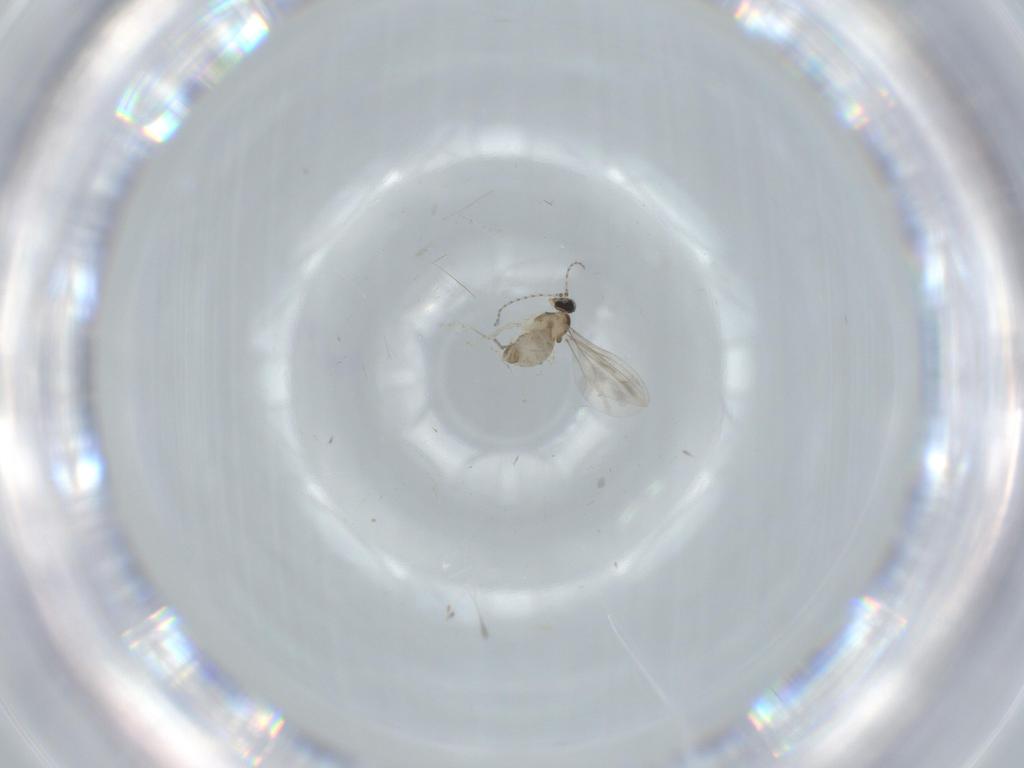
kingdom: Animalia
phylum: Arthropoda
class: Insecta
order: Diptera
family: Cecidomyiidae
